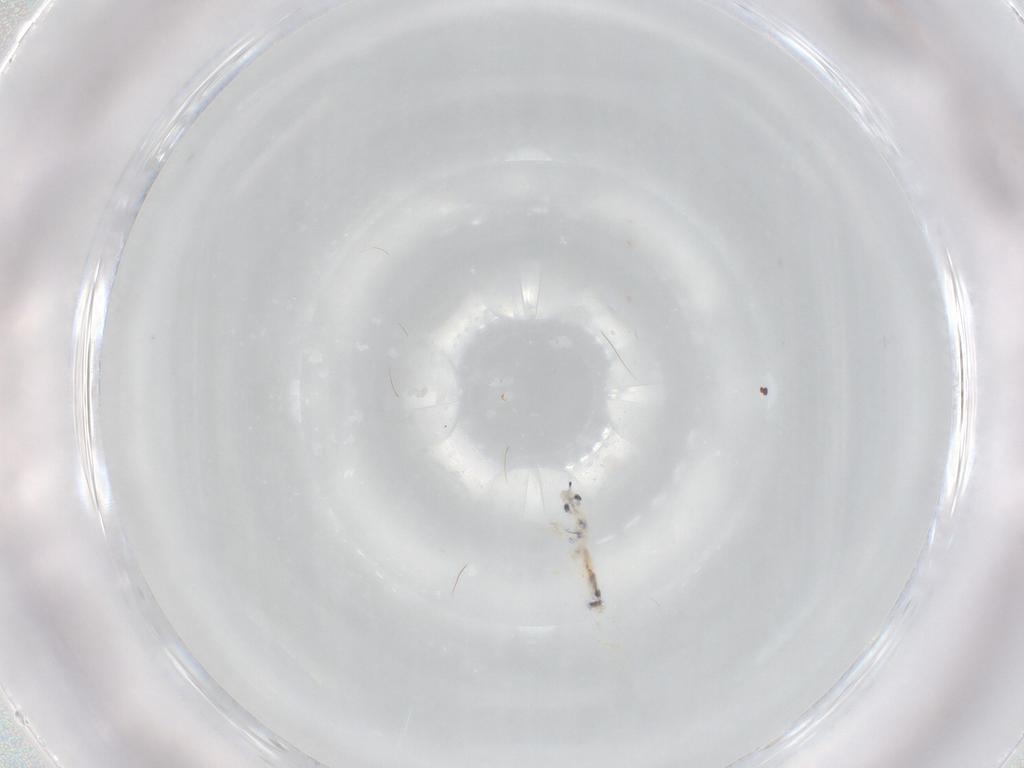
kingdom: Animalia
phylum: Arthropoda
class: Collembola
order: Entomobryomorpha
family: Entomobryidae
